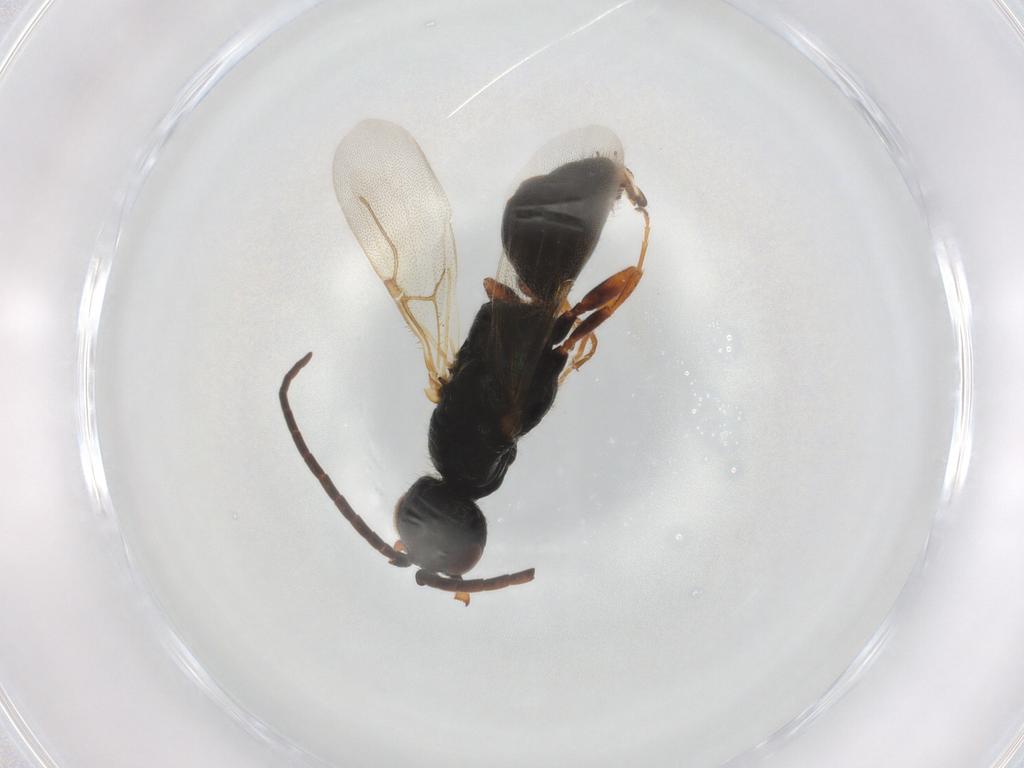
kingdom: Animalia
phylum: Arthropoda
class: Insecta
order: Hymenoptera
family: Bethylidae
